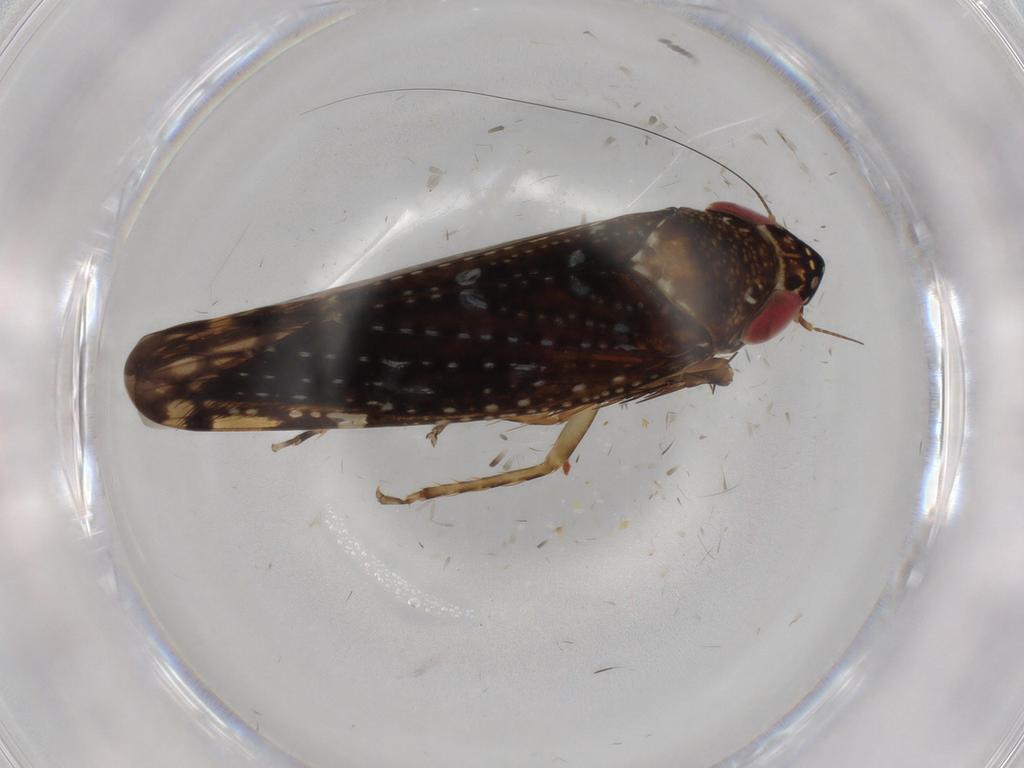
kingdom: Animalia
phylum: Arthropoda
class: Insecta
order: Hemiptera
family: Cicadellidae
